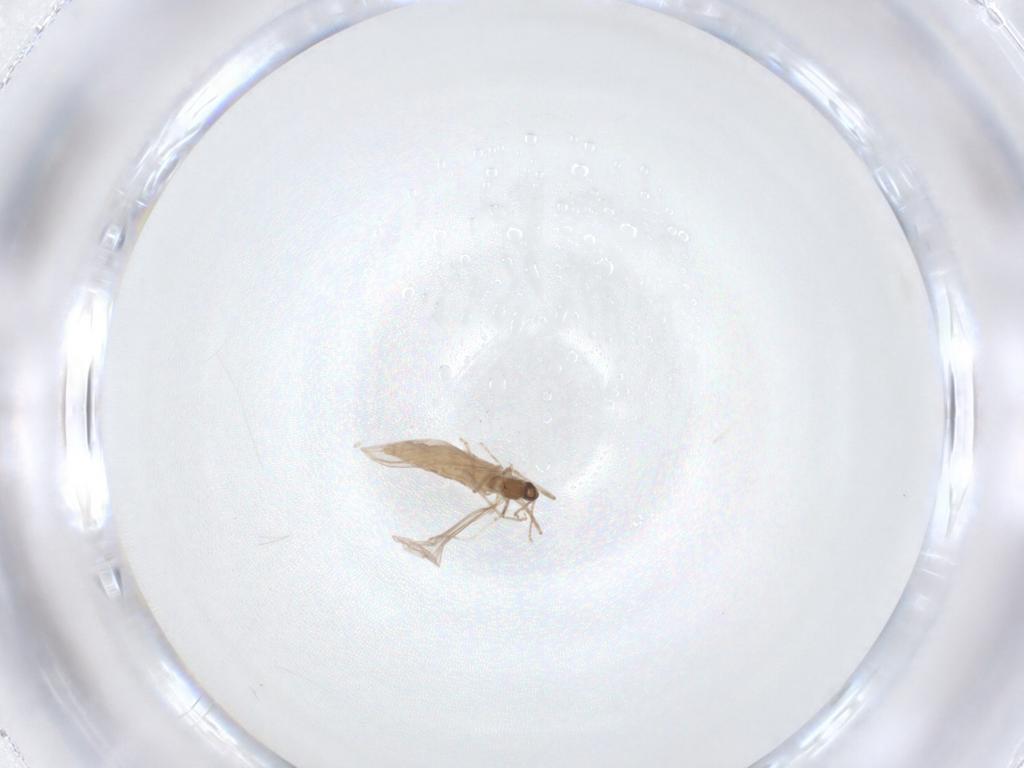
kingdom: Animalia
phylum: Arthropoda
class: Insecta
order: Diptera
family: Cecidomyiidae
